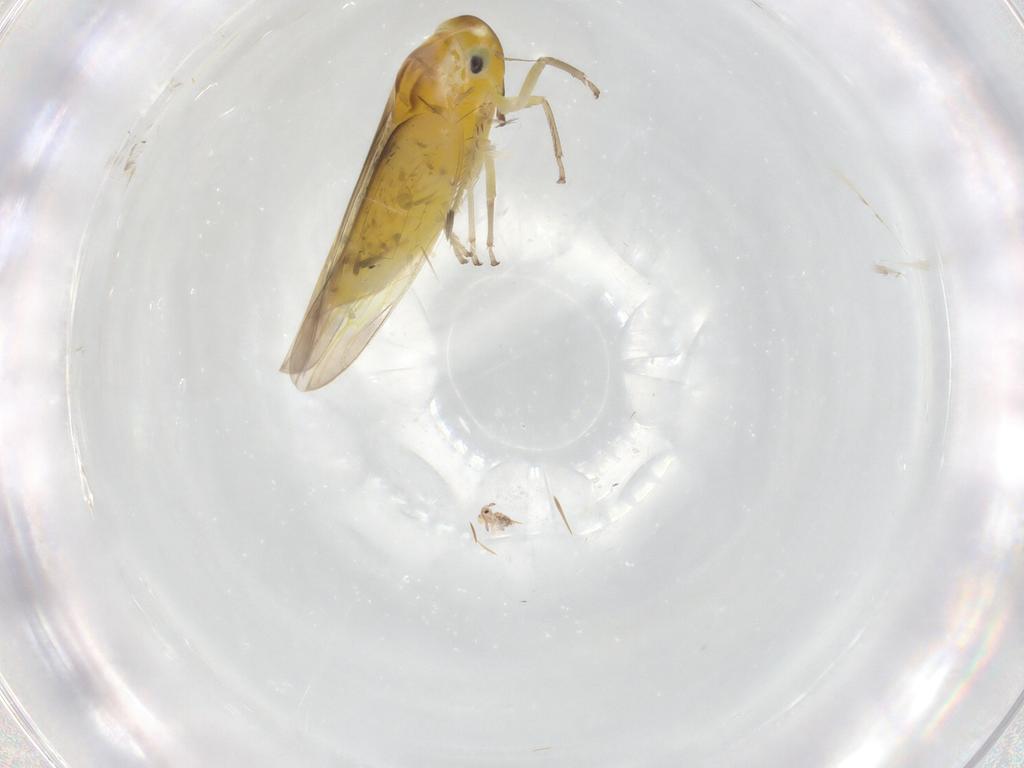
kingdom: Animalia
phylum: Arthropoda
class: Insecta
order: Hemiptera
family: Cicadellidae
